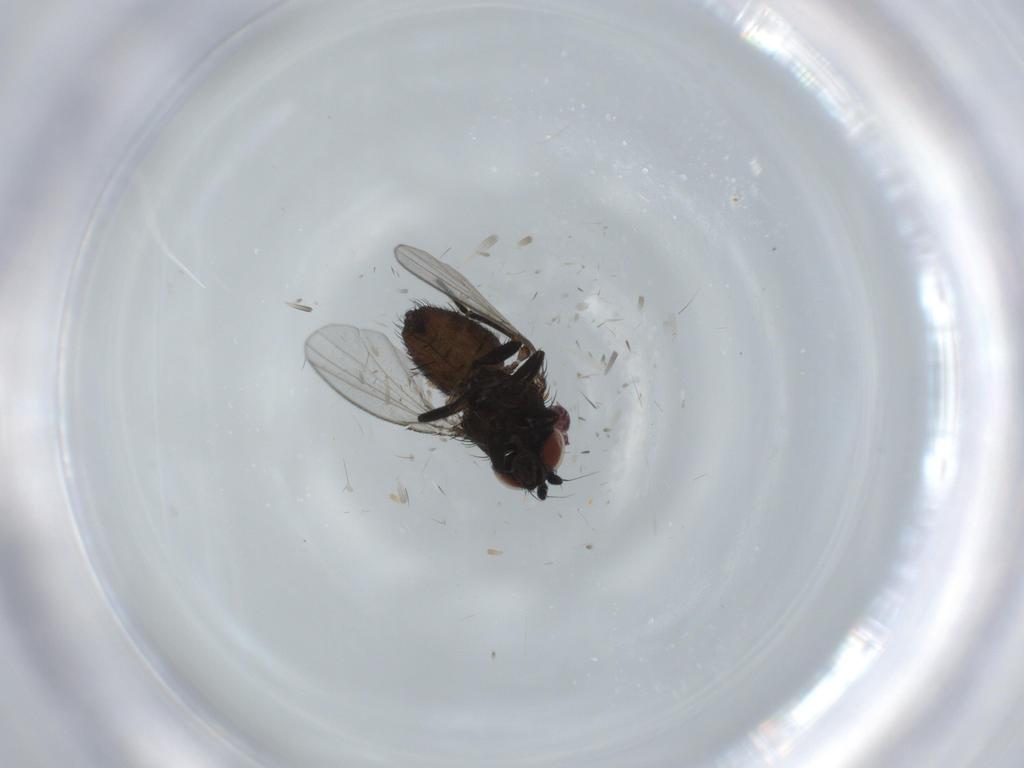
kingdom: Animalia
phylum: Arthropoda
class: Insecta
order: Diptera
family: Milichiidae
